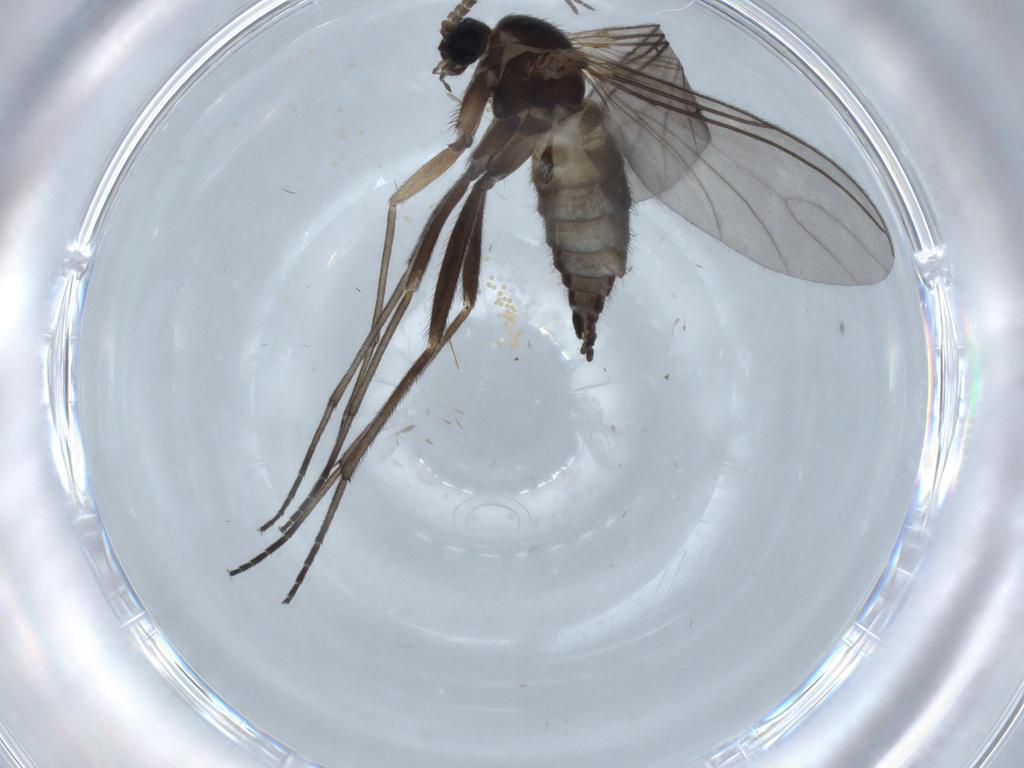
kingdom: Animalia
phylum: Arthropoda
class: Insecta
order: Diptera
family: Sciaridae
